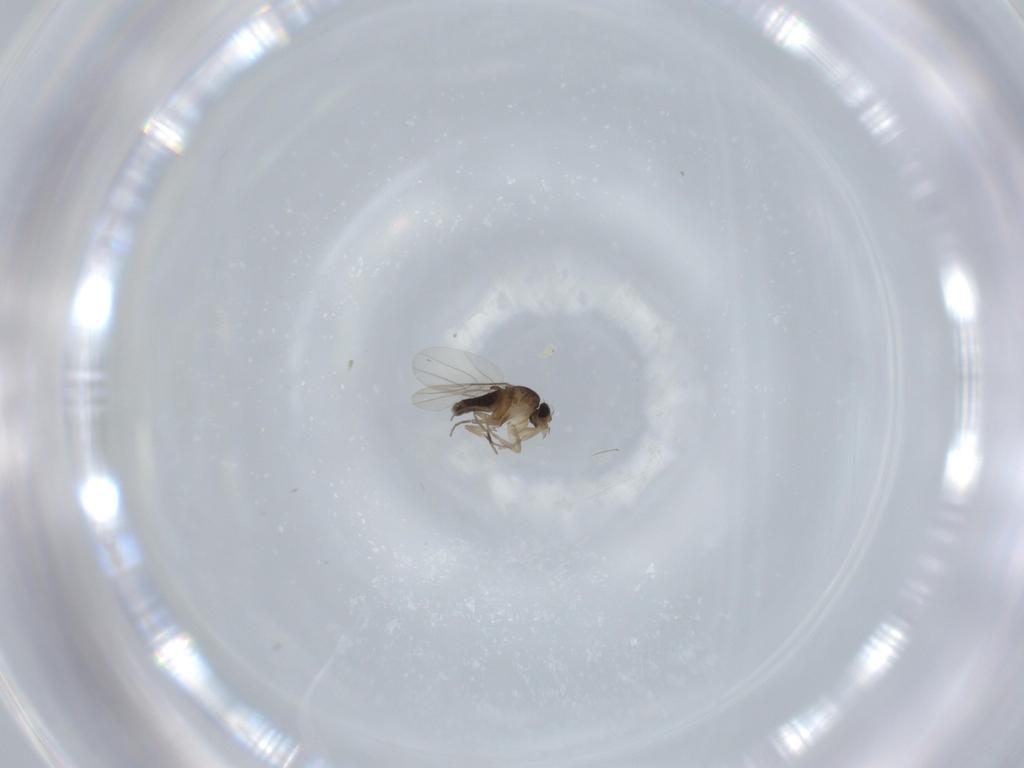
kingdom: Animalia
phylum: Arthropoda
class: Insecta
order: Diptera
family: Phoridae
